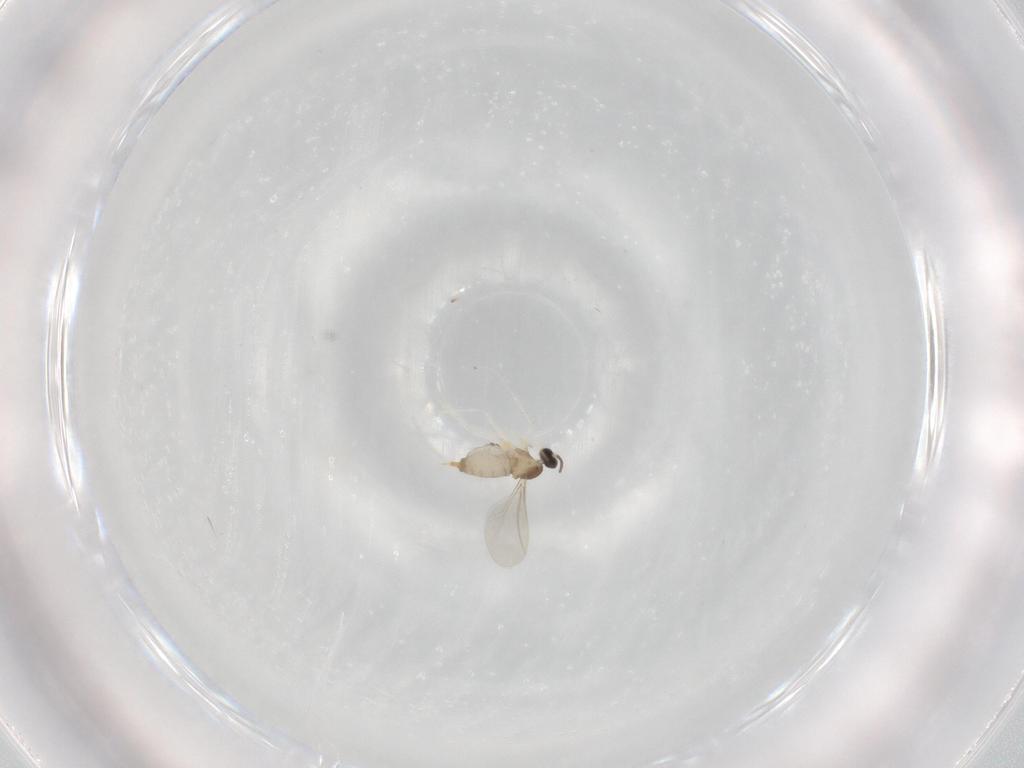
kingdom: Animalia
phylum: Arthropoda
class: Insecta
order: Diptera
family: Cecidomyiidae
